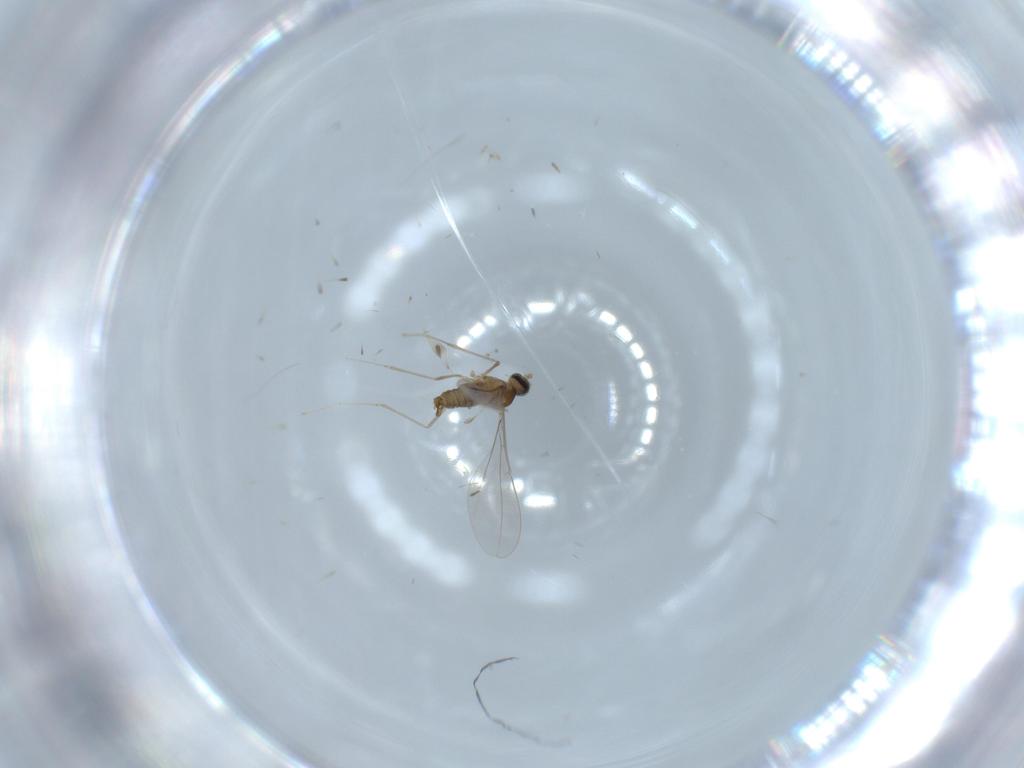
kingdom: Animalia
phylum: Arthropoda
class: Insecta
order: Diptera
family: Cecidomyiidae
